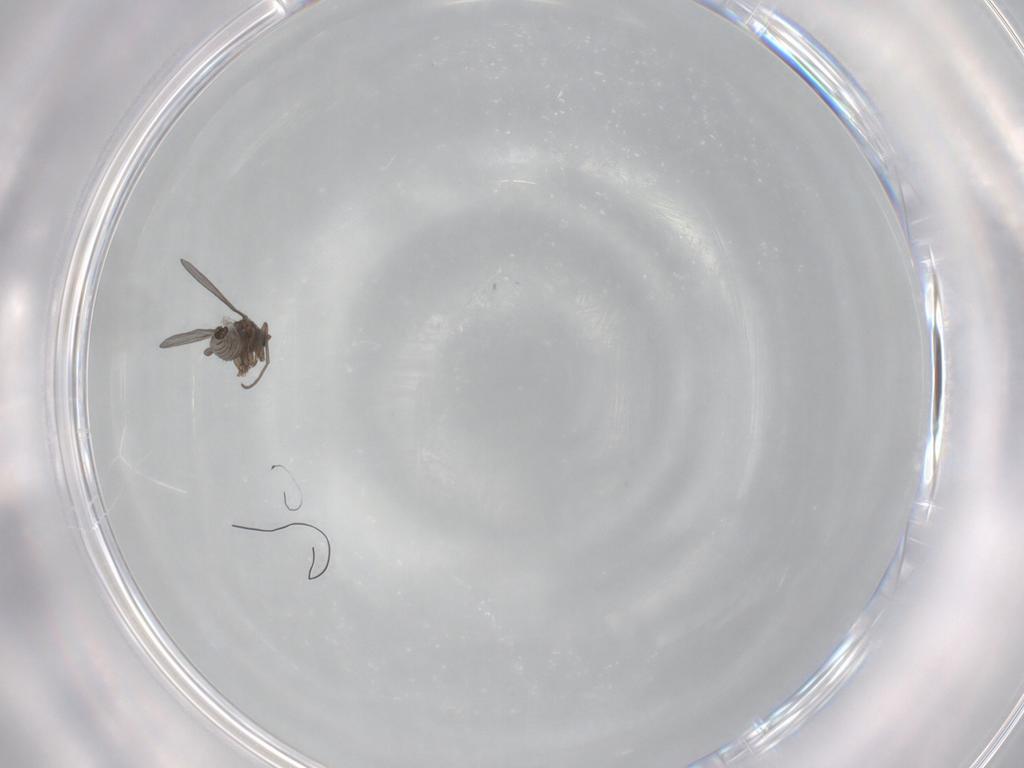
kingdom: Animalia
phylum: Arthropoda
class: Insecta
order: Diptera
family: Sciaridae
